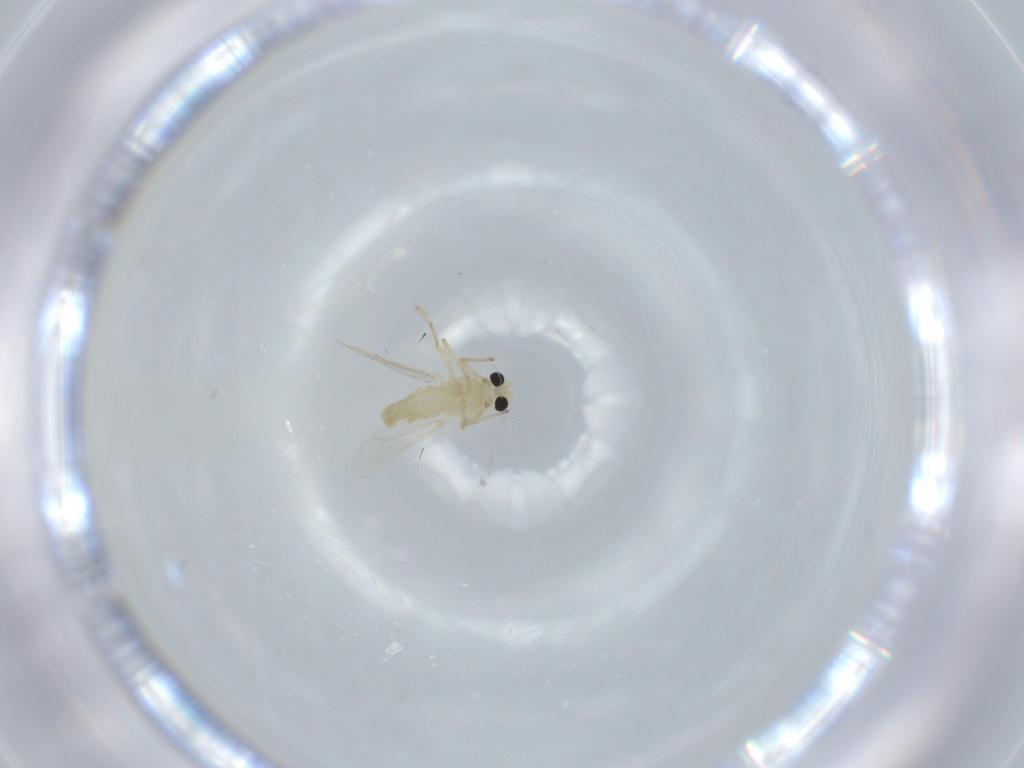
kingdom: Animalia
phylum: Arthropoda
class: Insecta
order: Diptera
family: Chironomidae
